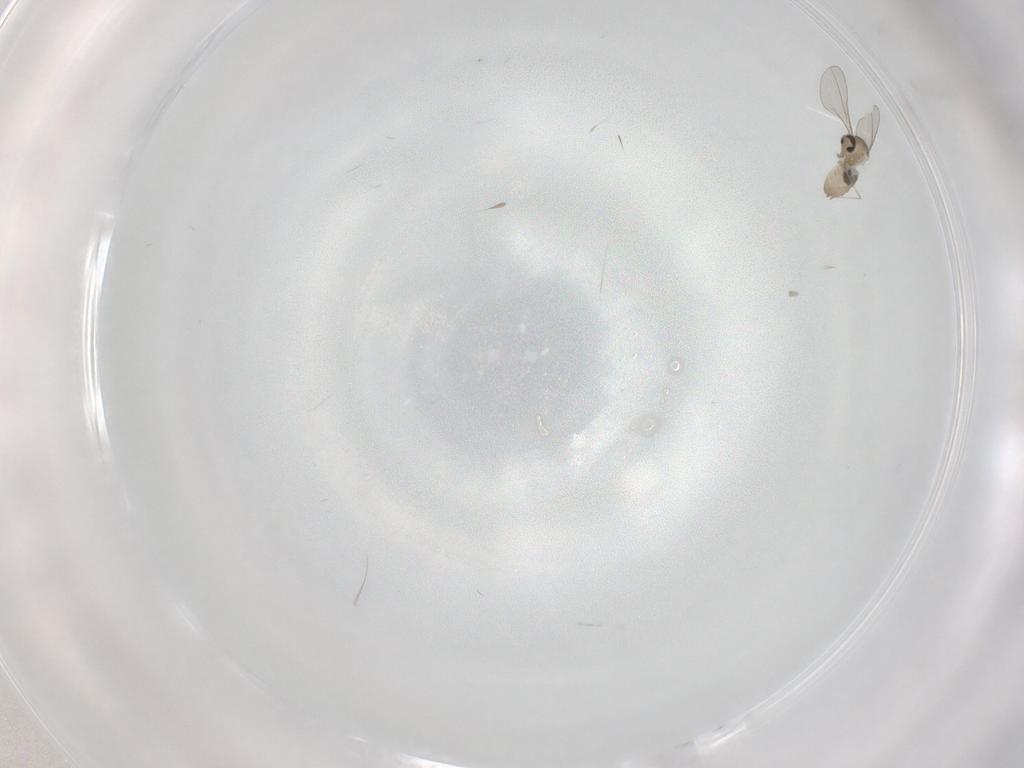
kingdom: Animalia
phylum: Arthropoda
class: Insecta
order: Diptera
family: Cecidomyiidae
